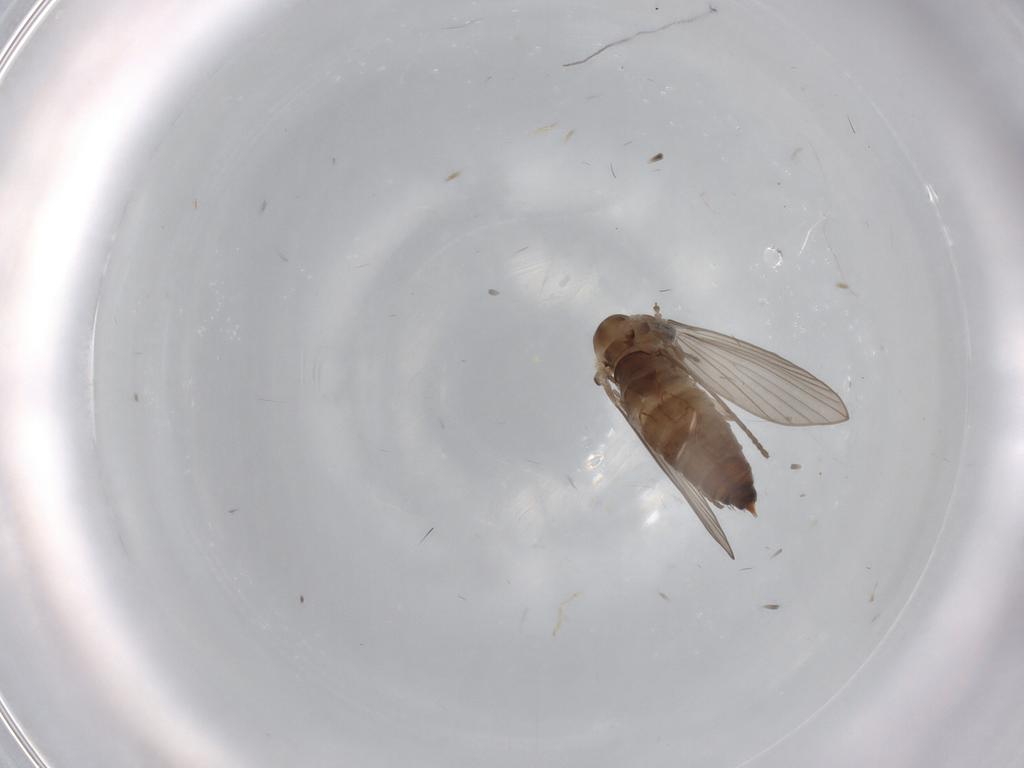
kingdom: Animalia
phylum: Arthropoda
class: Insecta
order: Diptera
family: Psychodidae
